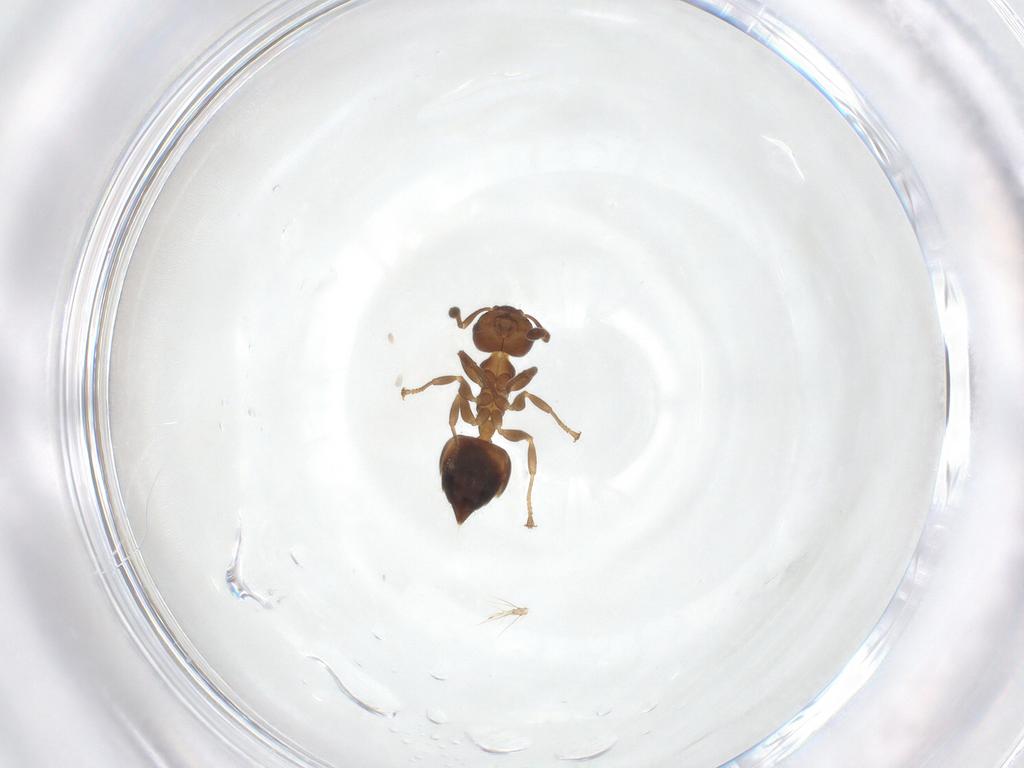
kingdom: Animalia
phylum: Arthropoda
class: Insecta
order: Hymenoptera
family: Formicidae
